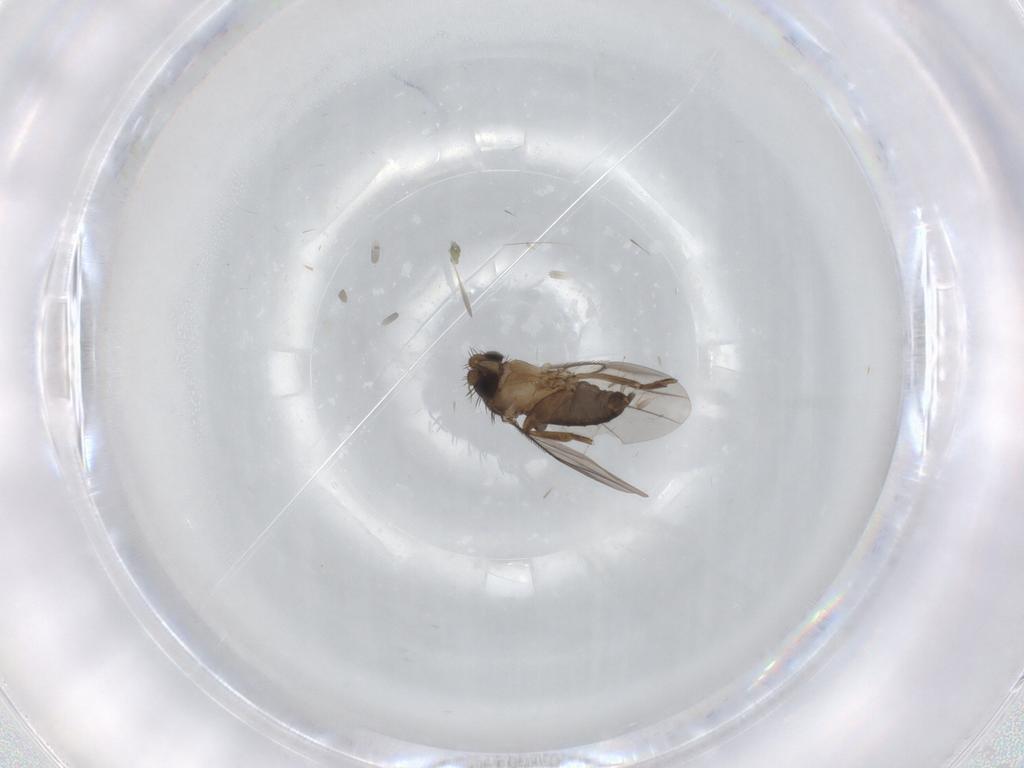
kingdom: Animalia
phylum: Arthropoda
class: Insecta
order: Diptera
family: Cecidomyiidae
